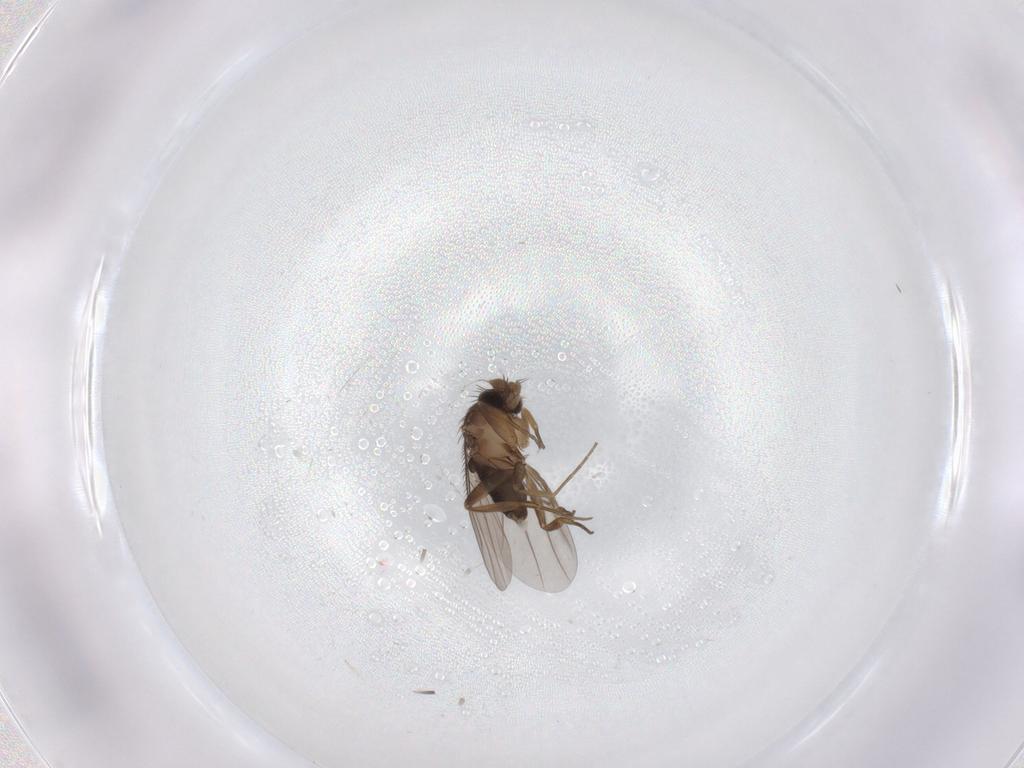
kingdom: Animalia
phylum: Arthropoda
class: Insecta
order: Diptera
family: Phoridae
